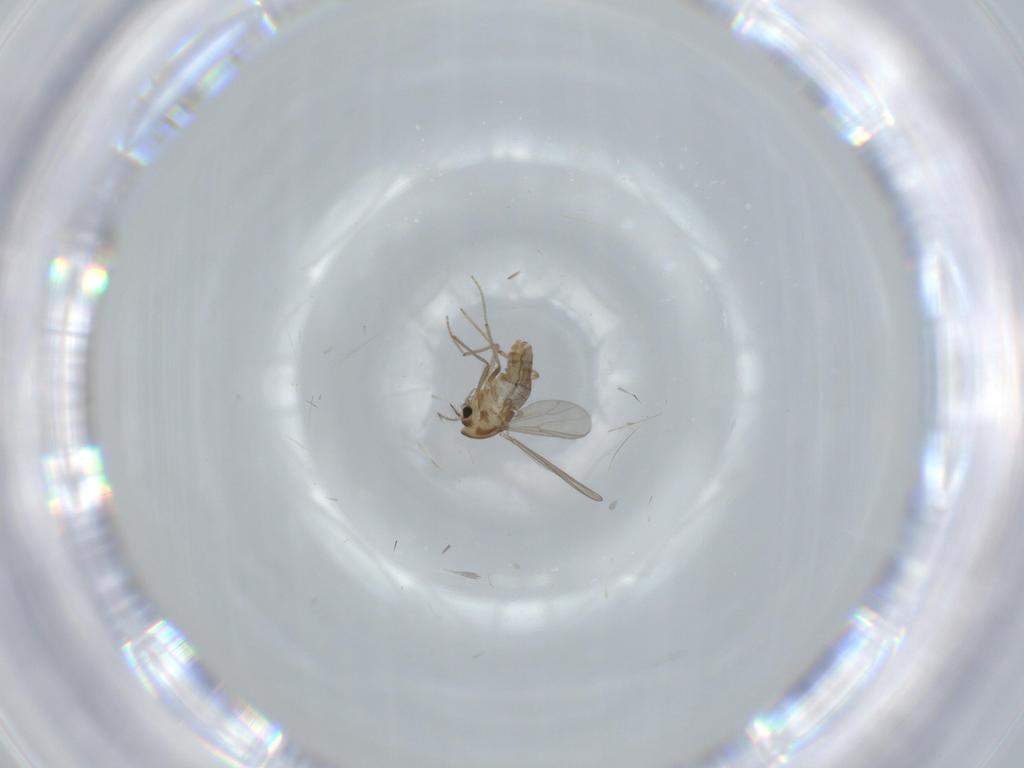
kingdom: Animalia
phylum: Arthropoda
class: Insecta
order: Diptera
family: Chironomidae
